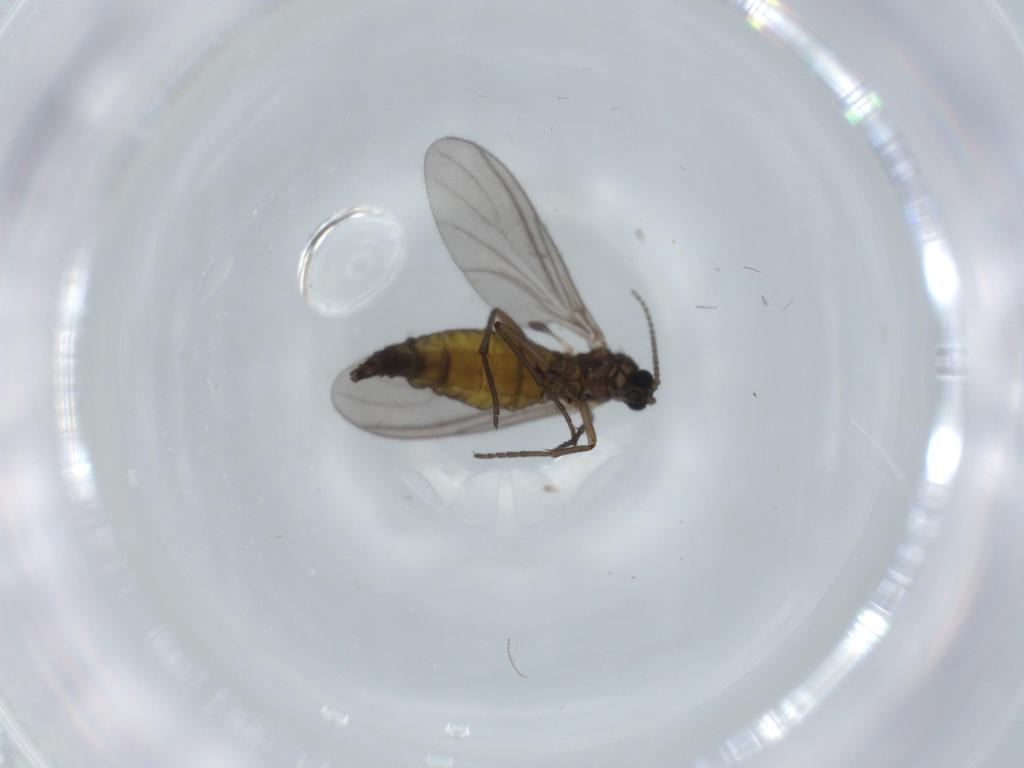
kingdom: Animalia
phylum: Arthropoda
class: Insecta
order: Diptera
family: Sciaridae
